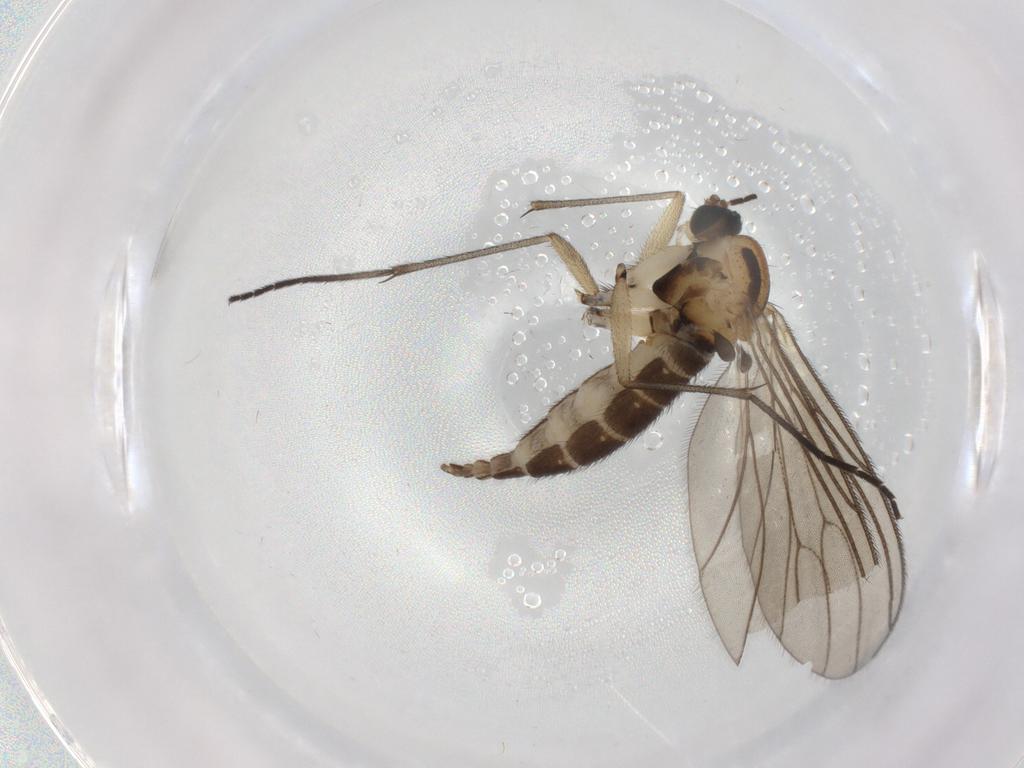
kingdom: Animalia
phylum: Arthropoda
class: Insecta
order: Diptera
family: Sciaridae
